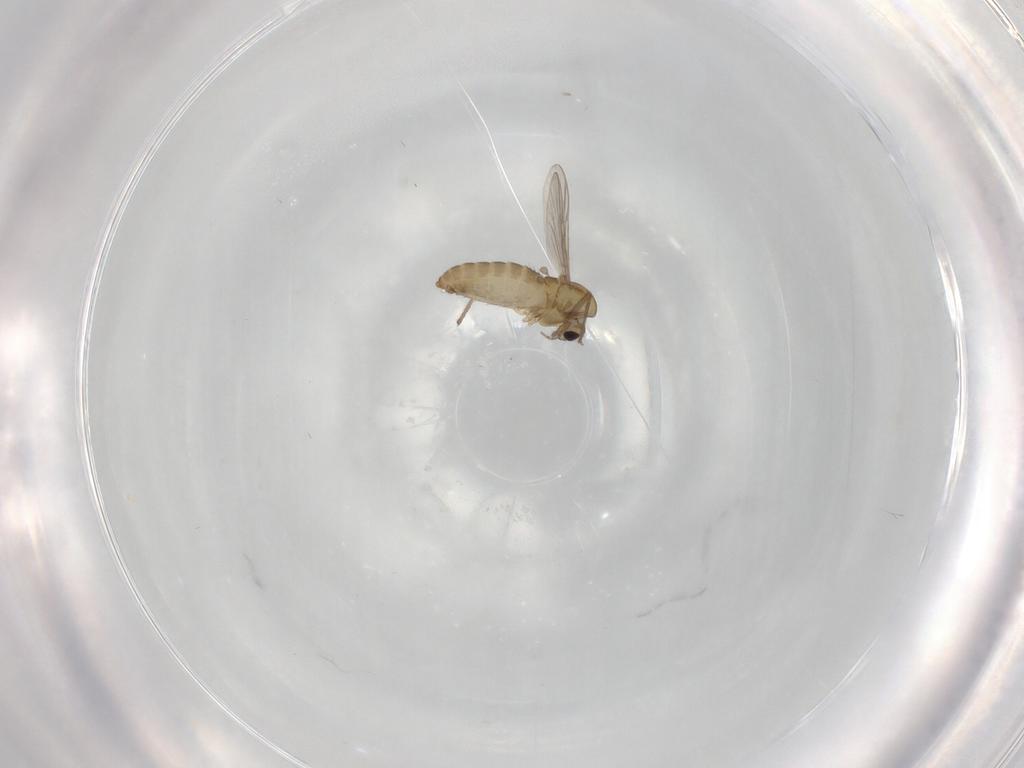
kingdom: Animalia
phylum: Arthropoda
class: Insecta
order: Diptera
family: Chironomidae
